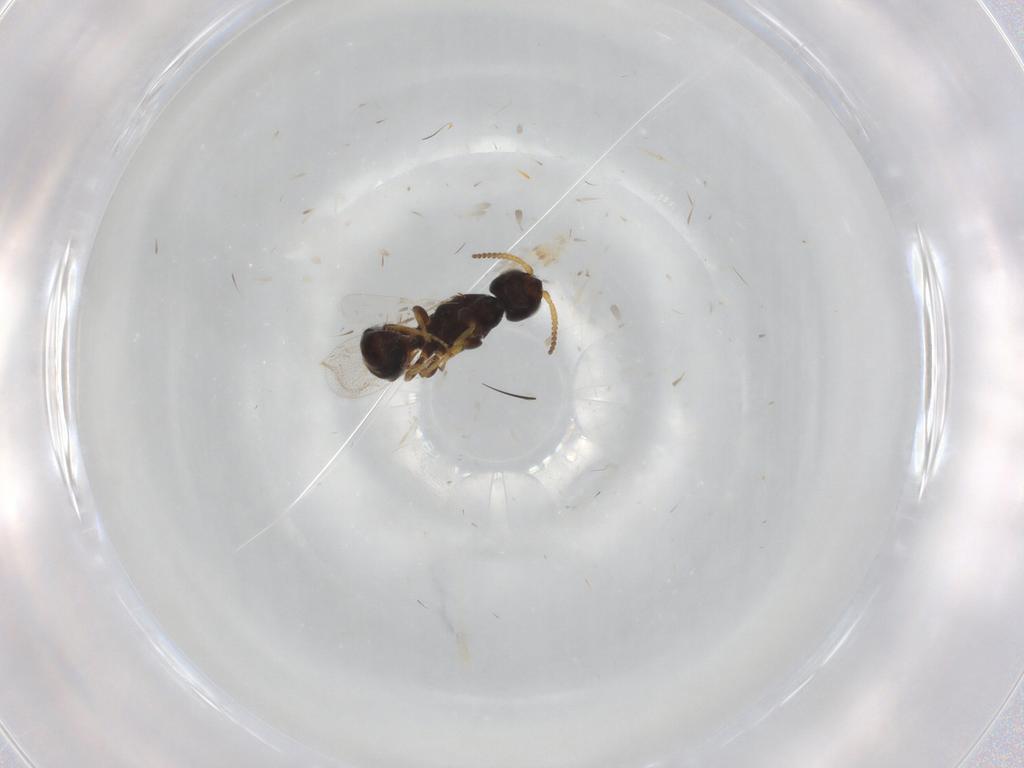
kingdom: Animalia
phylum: Arthropoda
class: Insecta
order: Hymenoptera
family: Bethylidae
